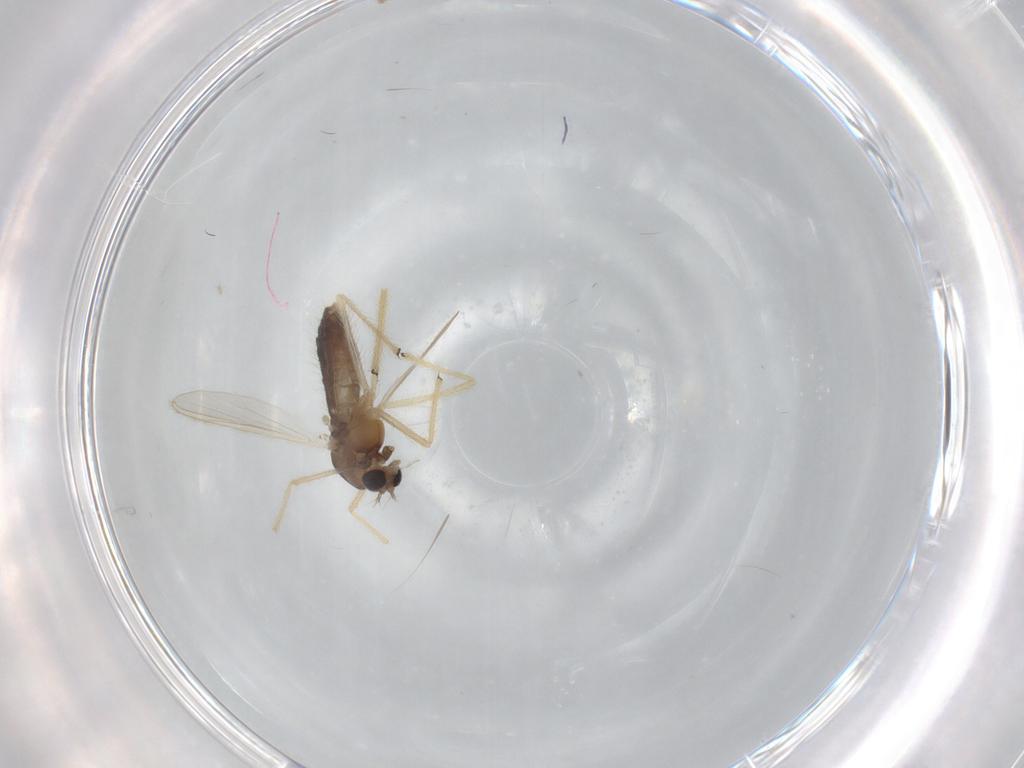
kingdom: Animalia
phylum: Arthropoda
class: Insecta
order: Diptera
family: Chironomidae
